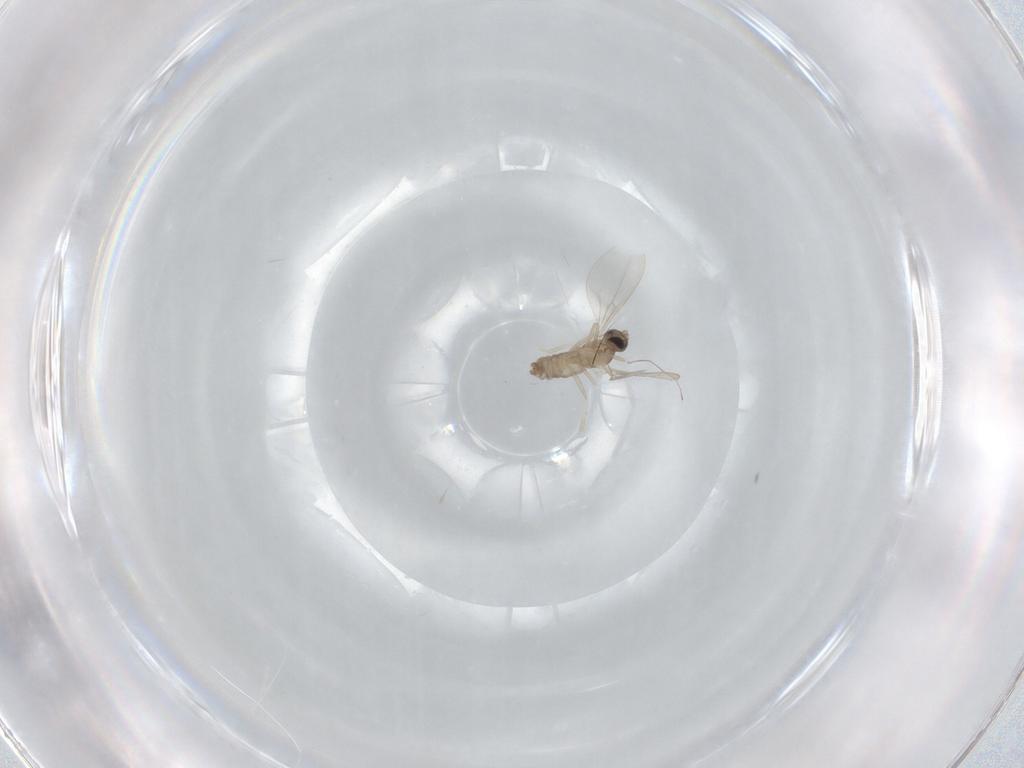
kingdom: Animalia
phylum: Arthropoda
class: Insecta
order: Diptera
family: Cecidomyiidae
